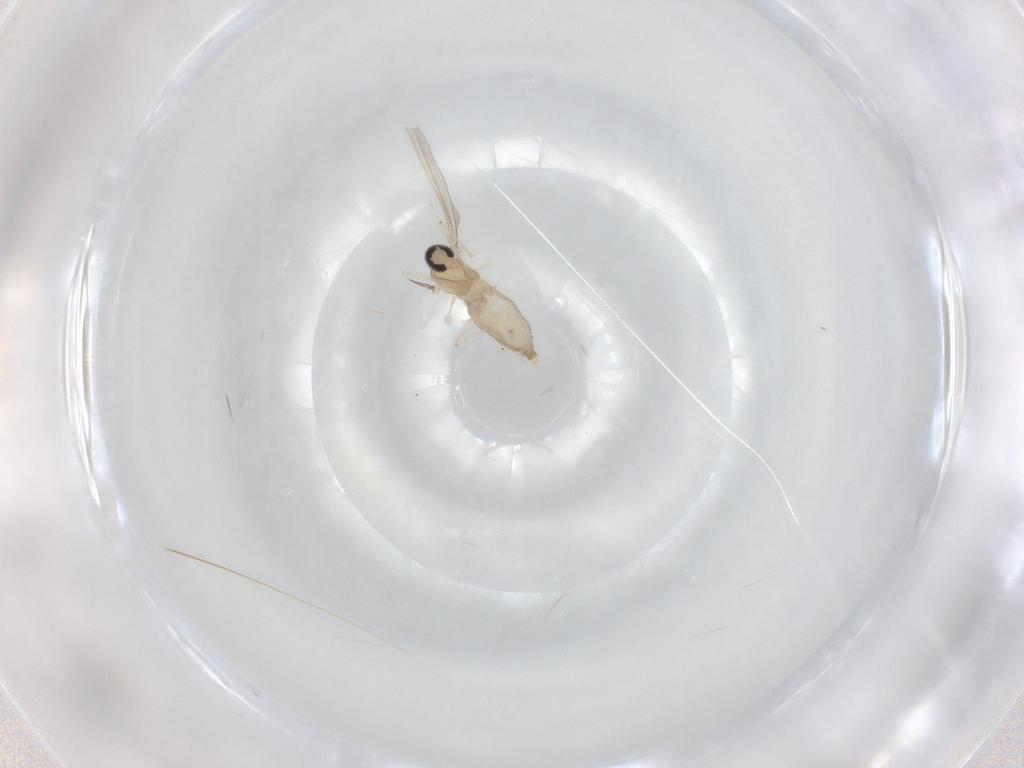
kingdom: Animalia
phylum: Arthropoda
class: Insecta
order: Diptera
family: Cecidomyiidae
